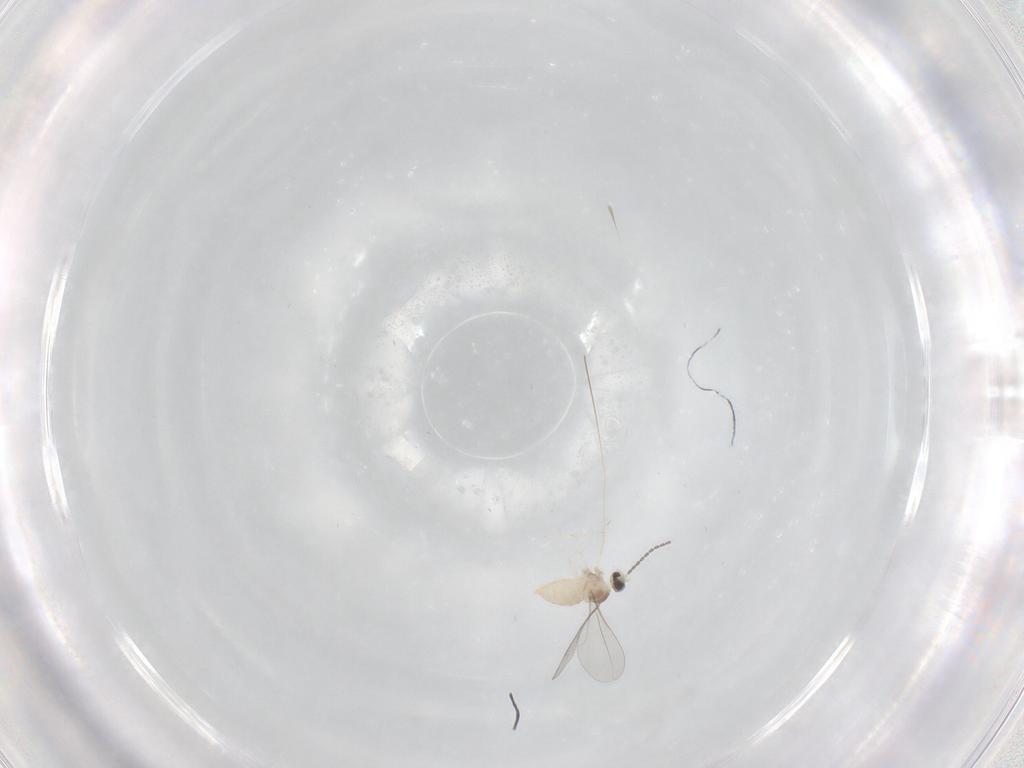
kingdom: Animalia
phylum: Arthropoda
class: Insecta
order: Diptera
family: Cecidomyiidae
